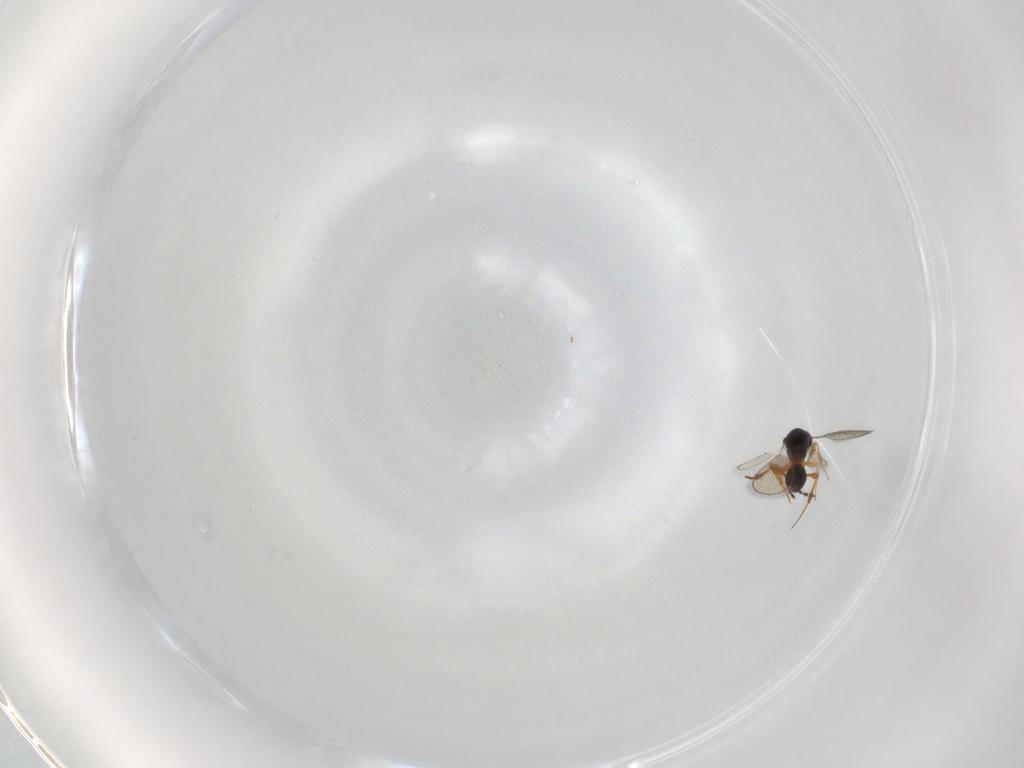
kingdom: Animalia
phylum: Arthropoda
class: Insecta
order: Hymenoptera
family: Platygastridae
